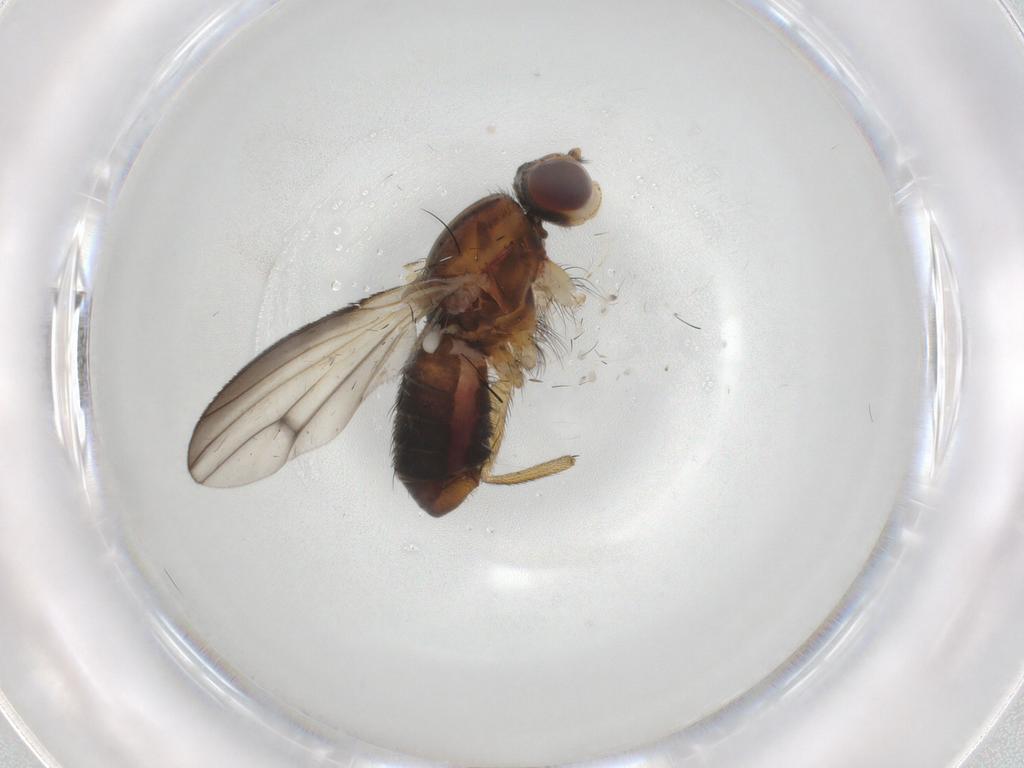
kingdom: Animalia
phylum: Arthropoda
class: Insecta
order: Diptera
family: Heleomyzidae
